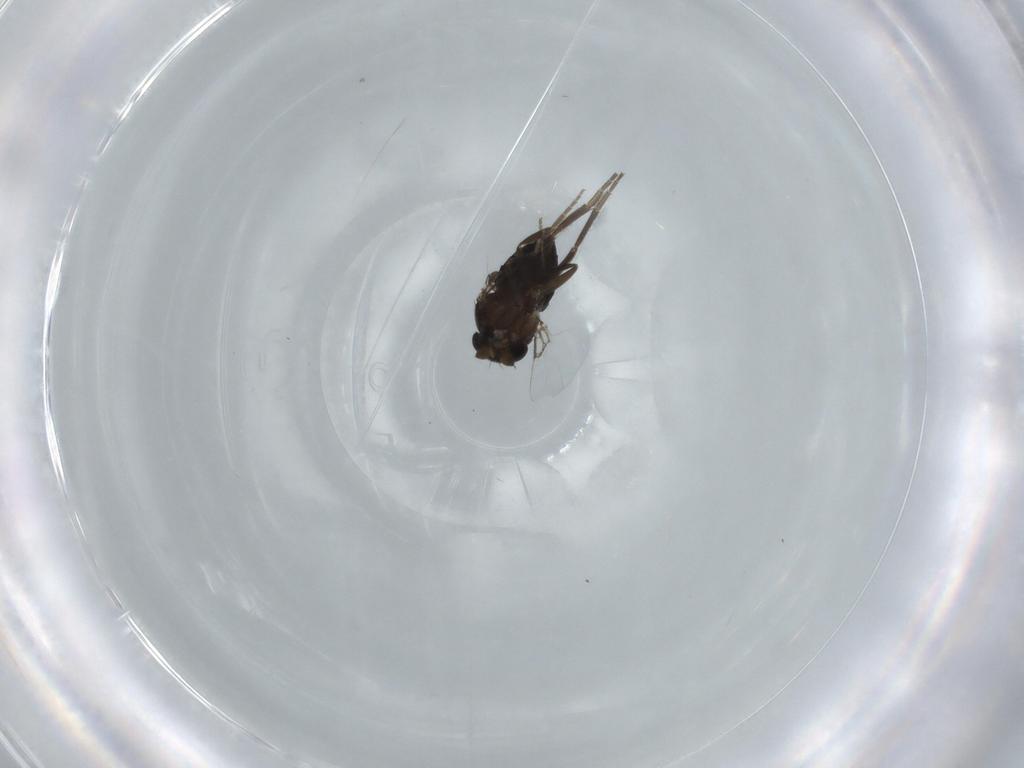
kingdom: Animalia
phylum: Arthropoda
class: Insecta
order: Diptera
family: Phoridae
